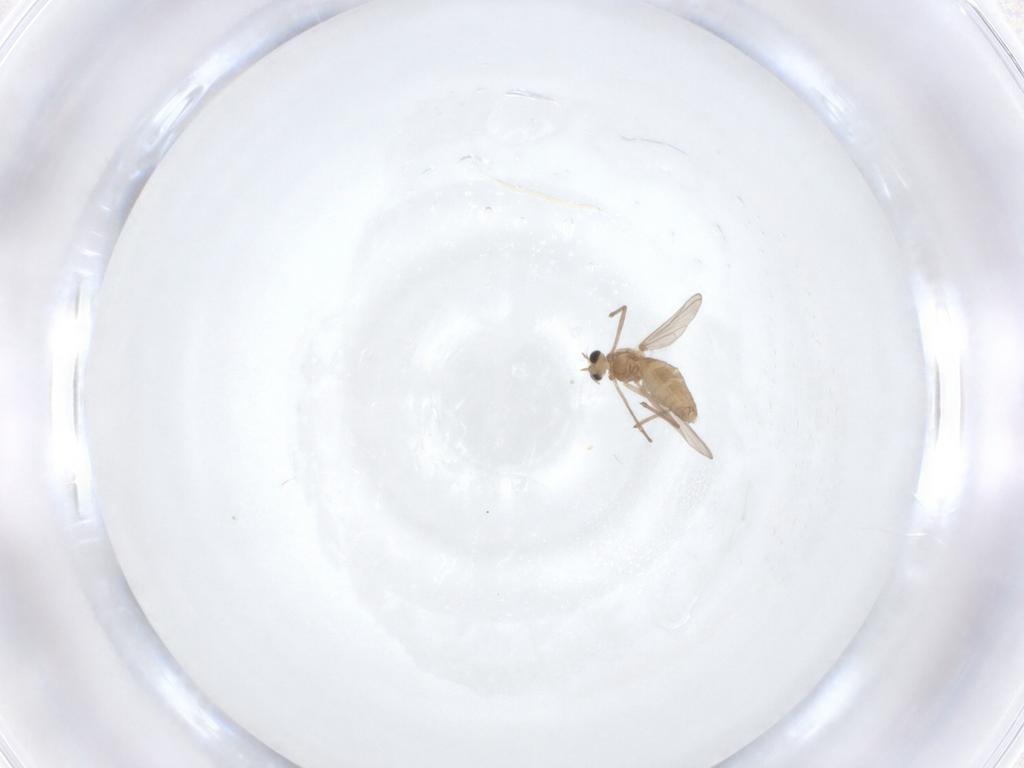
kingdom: Animalia
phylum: Arthropoda
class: Insecta
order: Diptera
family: Chironomidae
